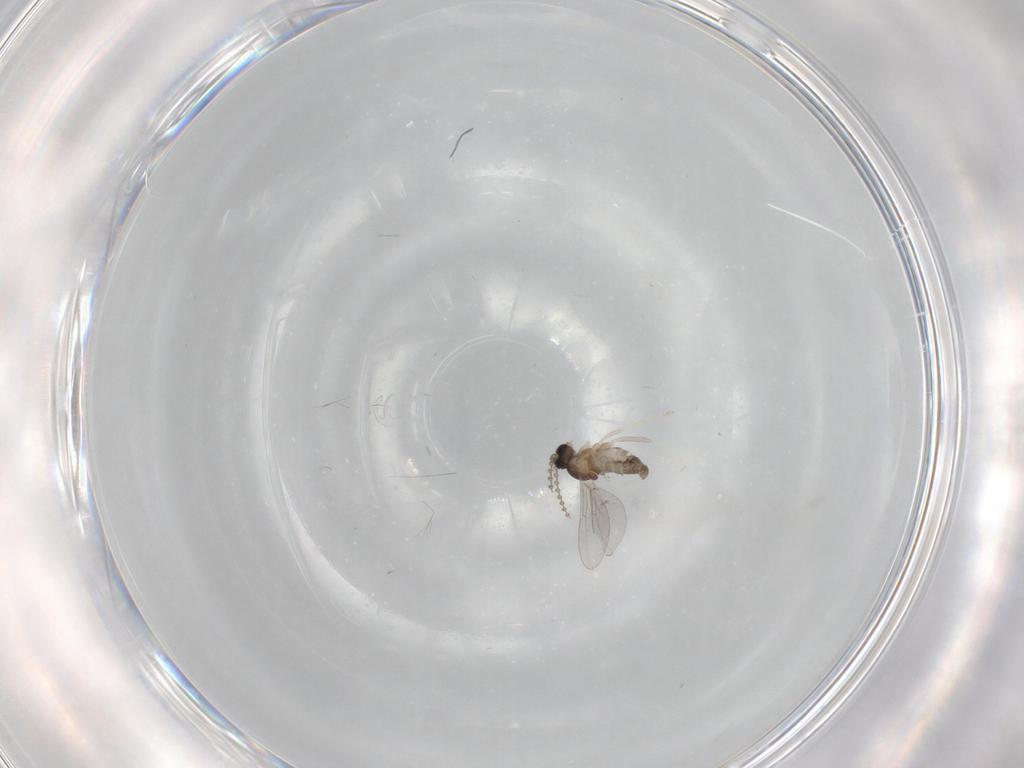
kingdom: Animalia
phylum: Arthropoda
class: Insecta
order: Diptera
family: Cecidomyiidae
